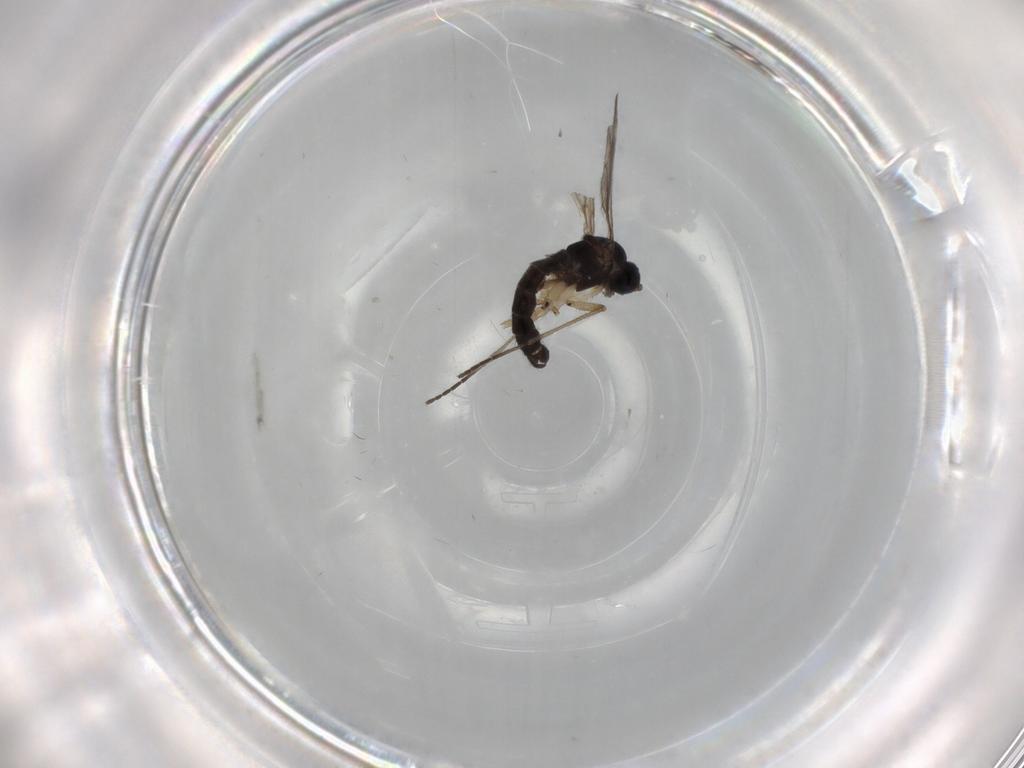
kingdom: Animalia
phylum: Arthropoda
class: Insecta
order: Diptera
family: Sciaridae
